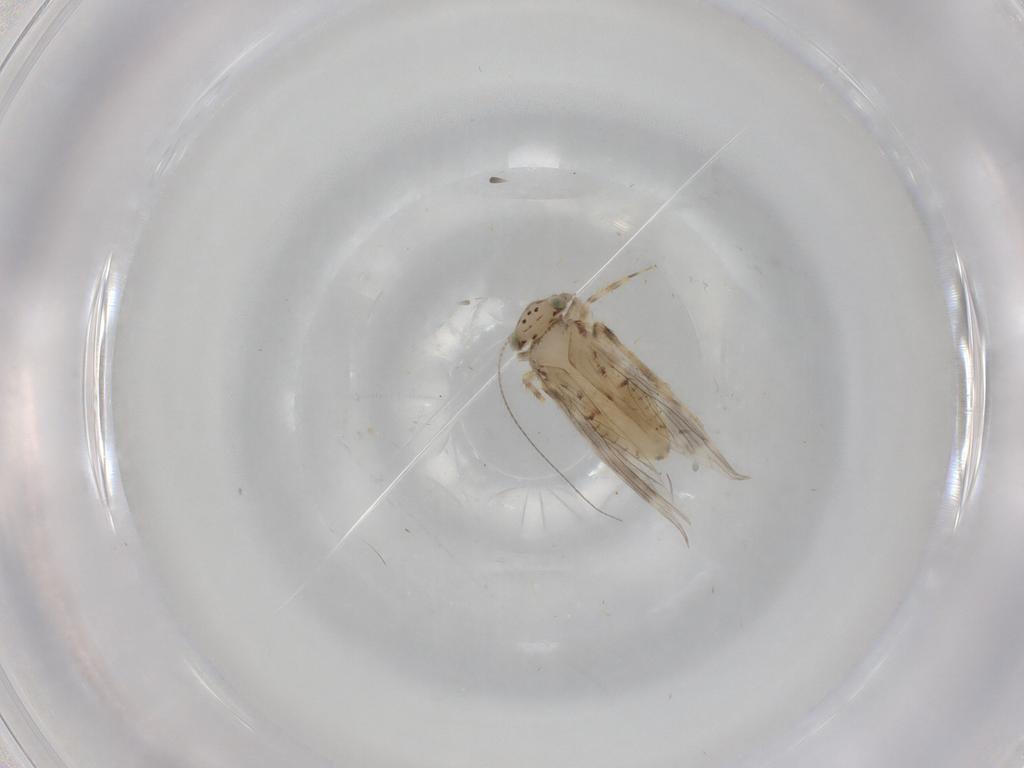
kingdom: Animalia
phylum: Arthropoda
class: Insecta
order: Psocodea
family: Lepidopsocidae
